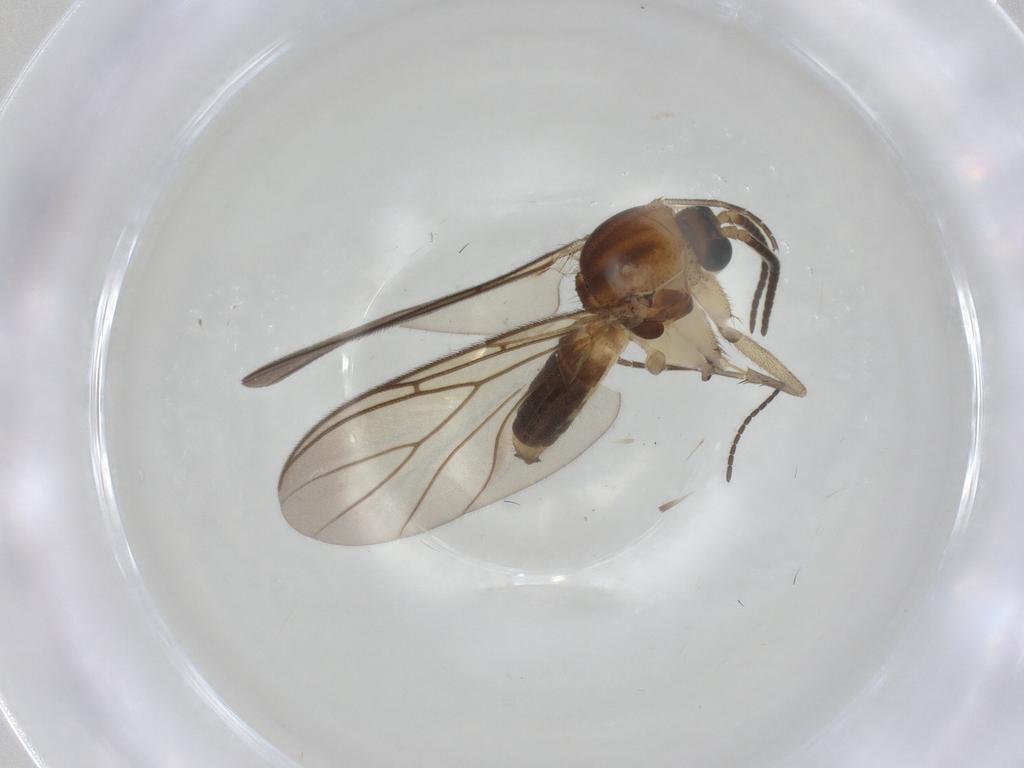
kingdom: Animalia
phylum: Arthropoda
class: Insecta
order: Diptera
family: Mycetophilidae
